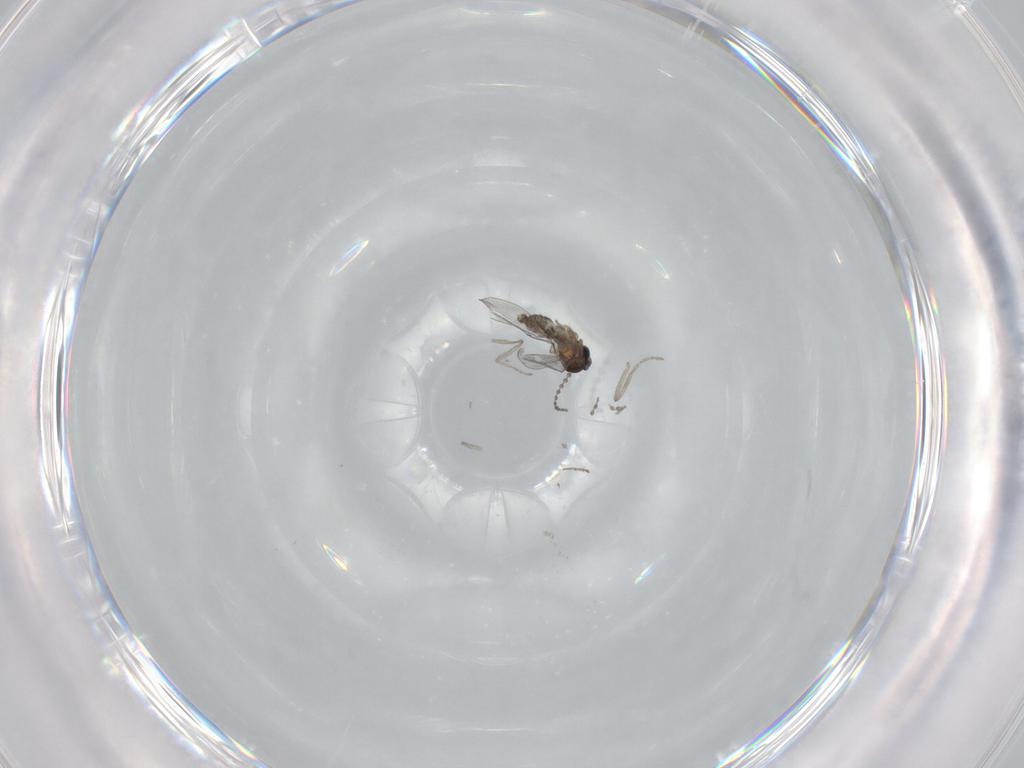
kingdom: Animalia
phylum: Arthropoda
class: Insecta
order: Diptera
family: Cecidomyiidae
